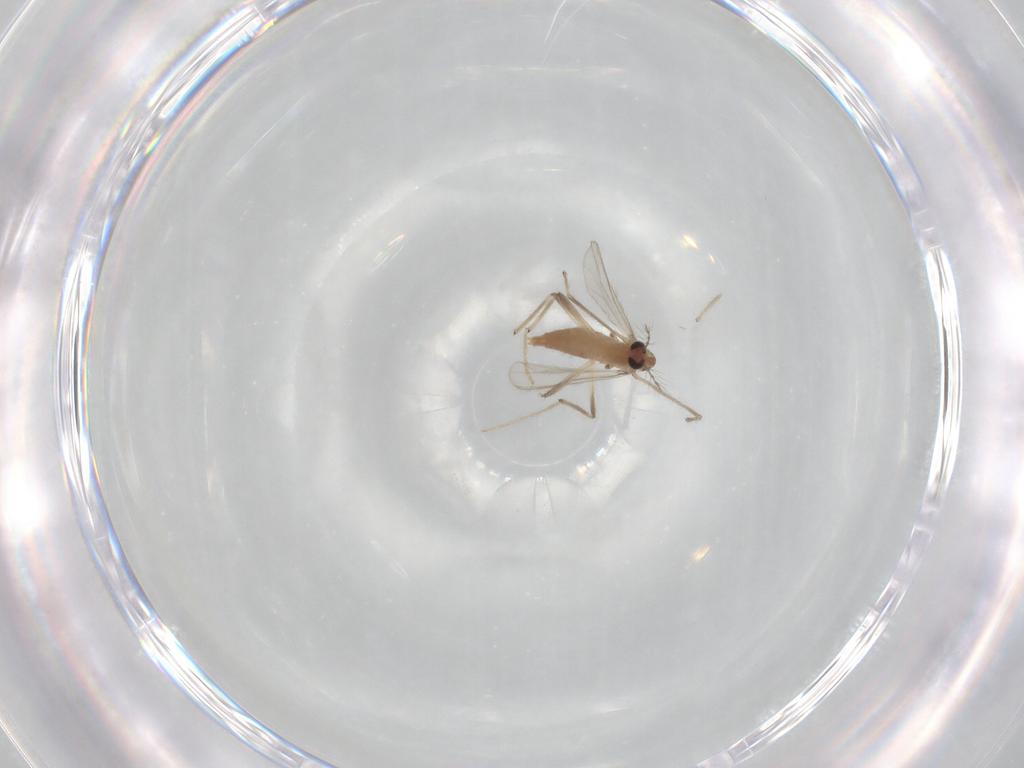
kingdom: Animalia
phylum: Arthropoda
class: Insecta
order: Diptera
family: Chironomidae
